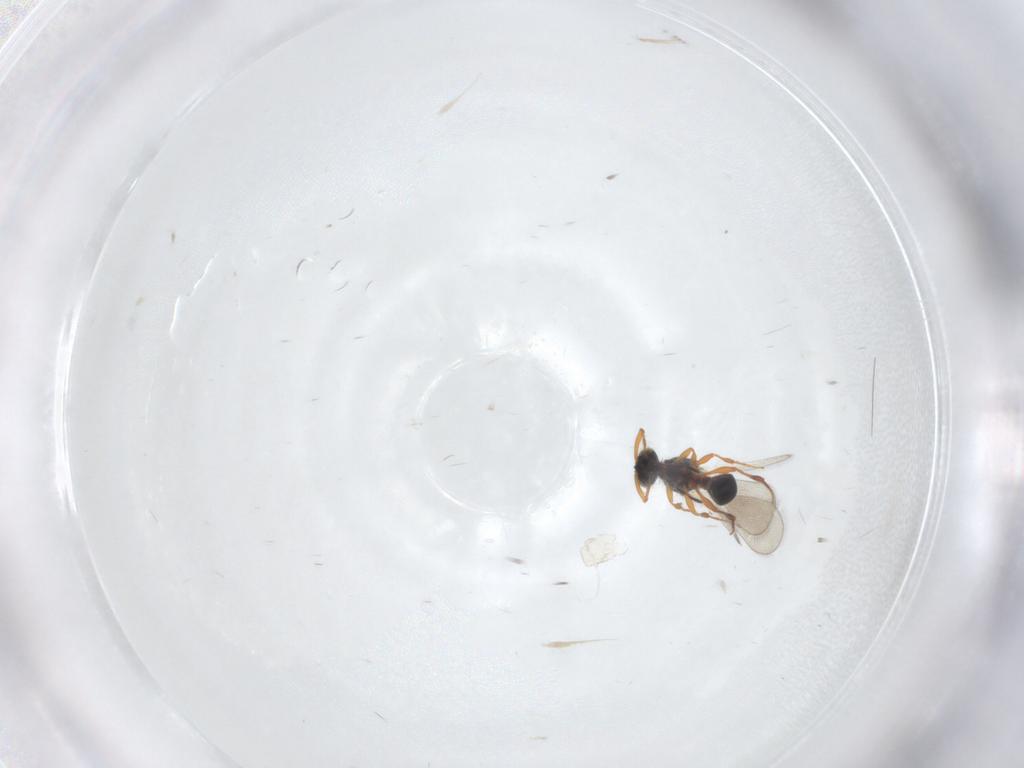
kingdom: Animalia
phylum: Arthropoda
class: Insecta
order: Hymenoptera
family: Platygastridae
